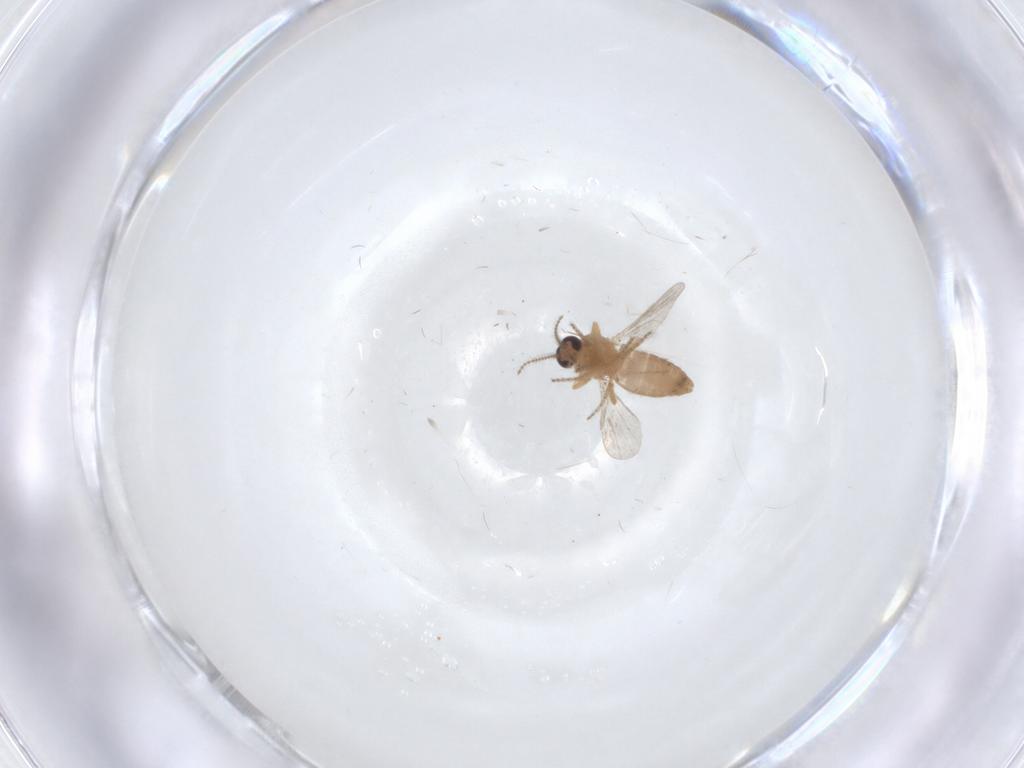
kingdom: Animalia
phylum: Arthropoda
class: Insecta
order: Diptera
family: Ceratopogonidae
